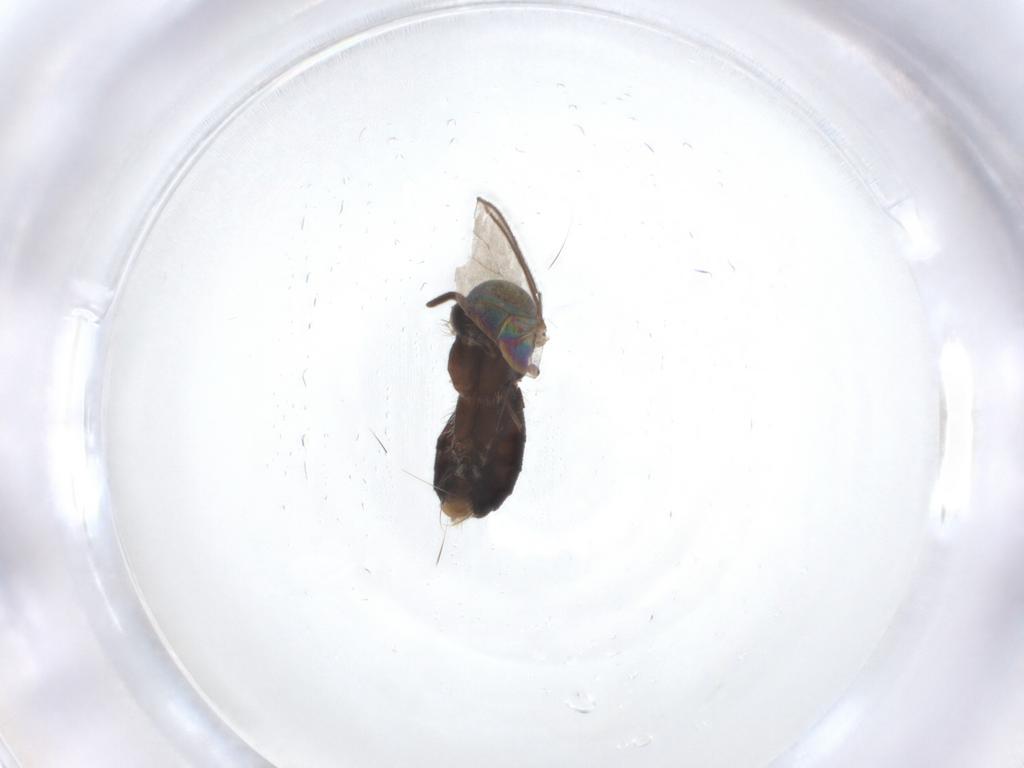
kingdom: Animalia
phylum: Arthropoda
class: Insecta
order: Diptera
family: Mycetophilidae
